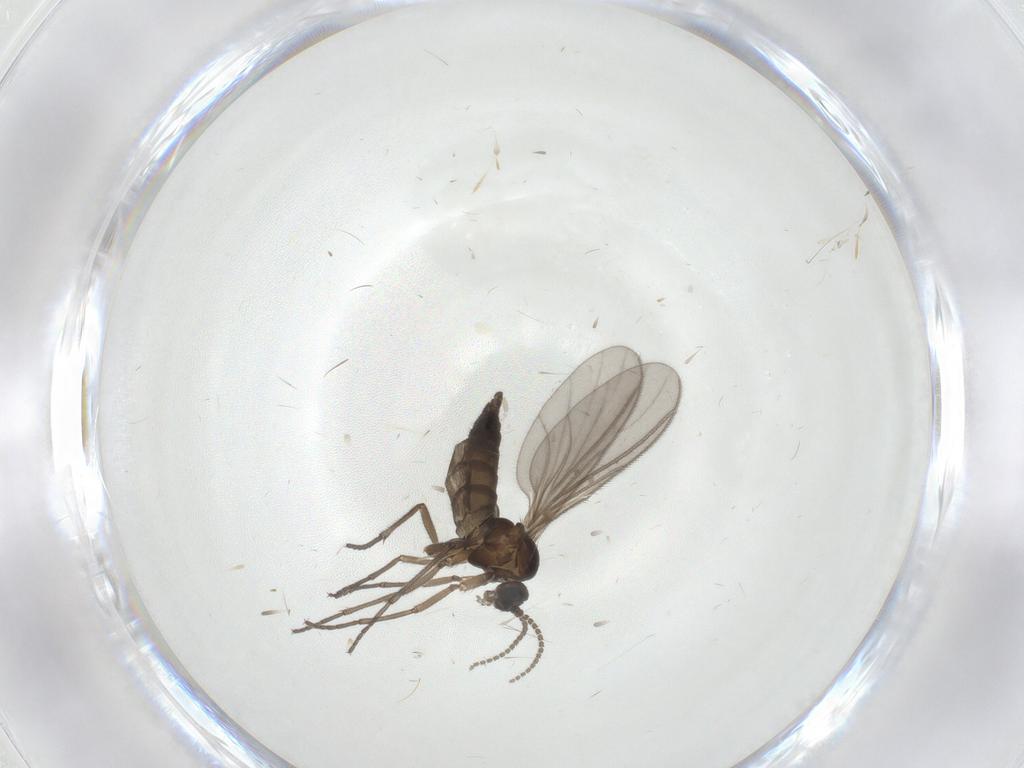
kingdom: Animalia
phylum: Arthropoda
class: Insecta
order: Diptera
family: Sciaridae
